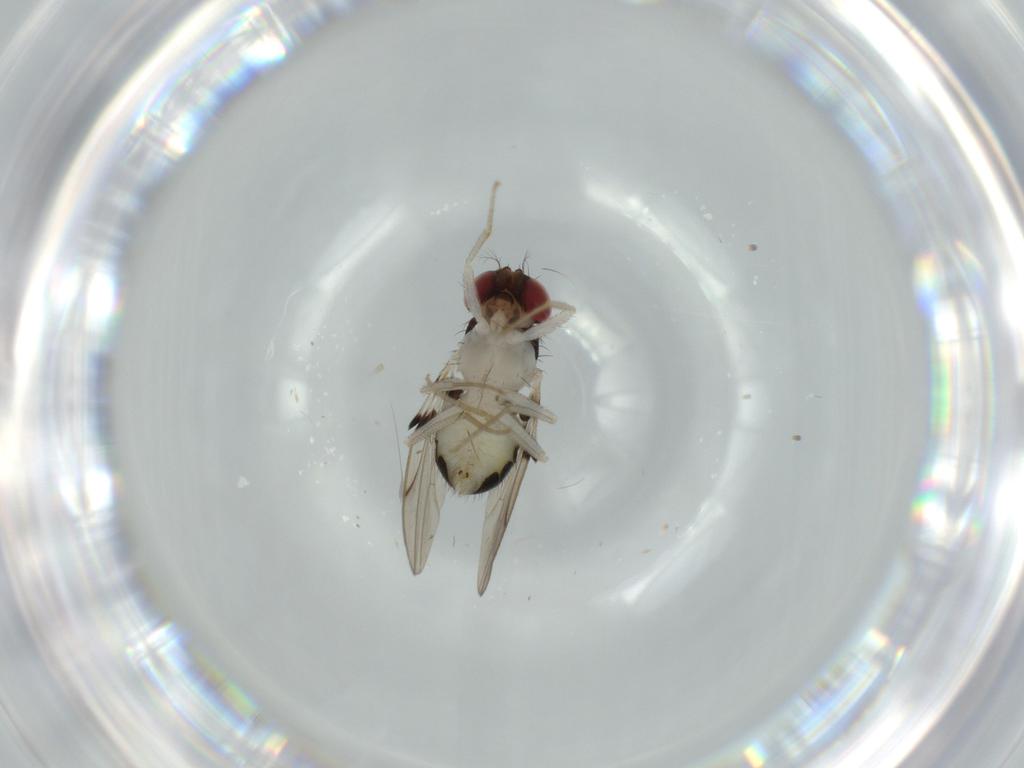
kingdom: Animalia
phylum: Arthropoda
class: Insecta
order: Diptera
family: Drosophilidae
